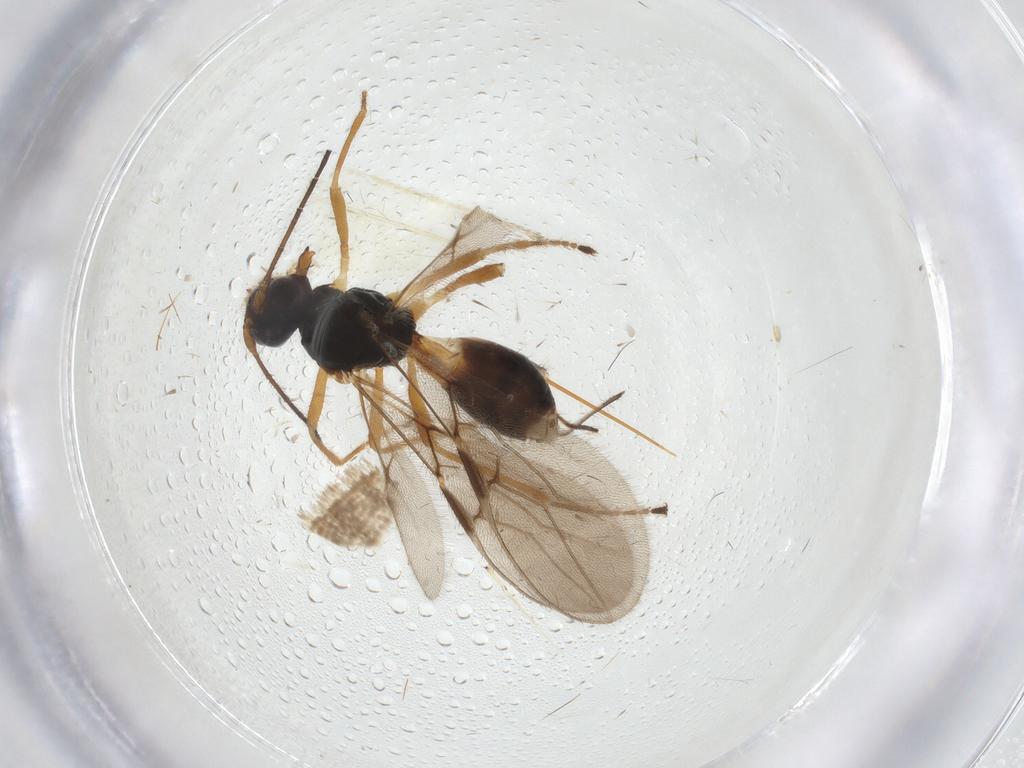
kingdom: Animalia
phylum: Arthropoda
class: Insecta
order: Hymenoptera
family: Braconidae
